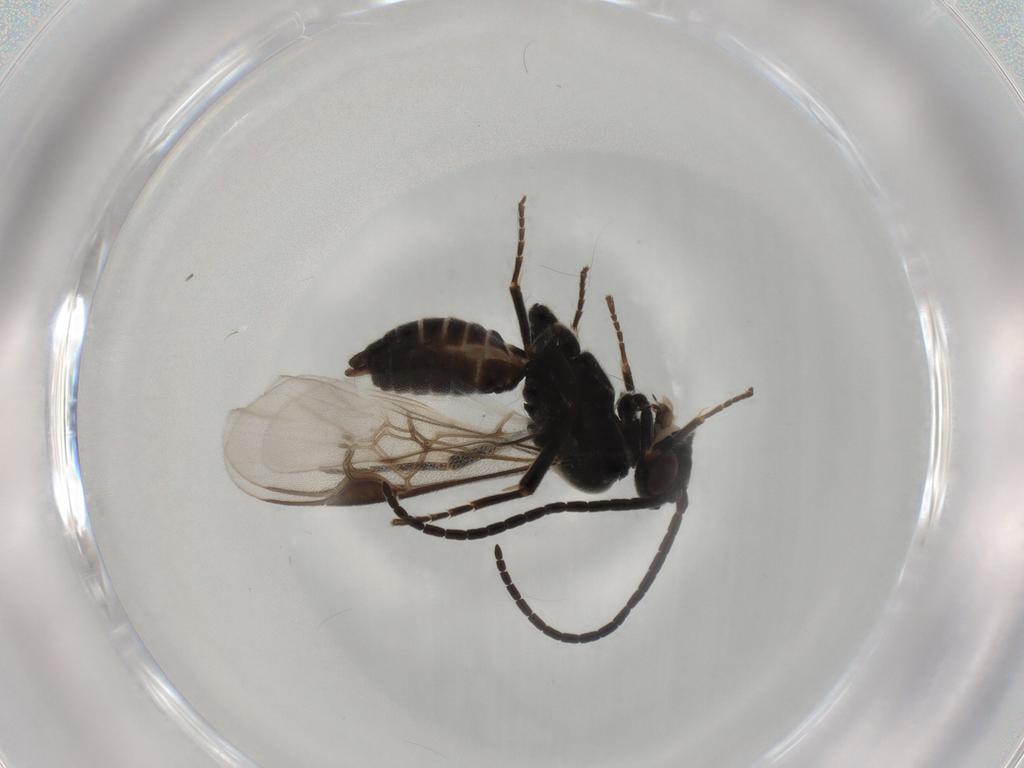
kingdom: Animalia
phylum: Arthropoda
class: Insecta
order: Hymenoptera
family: Braconidae
